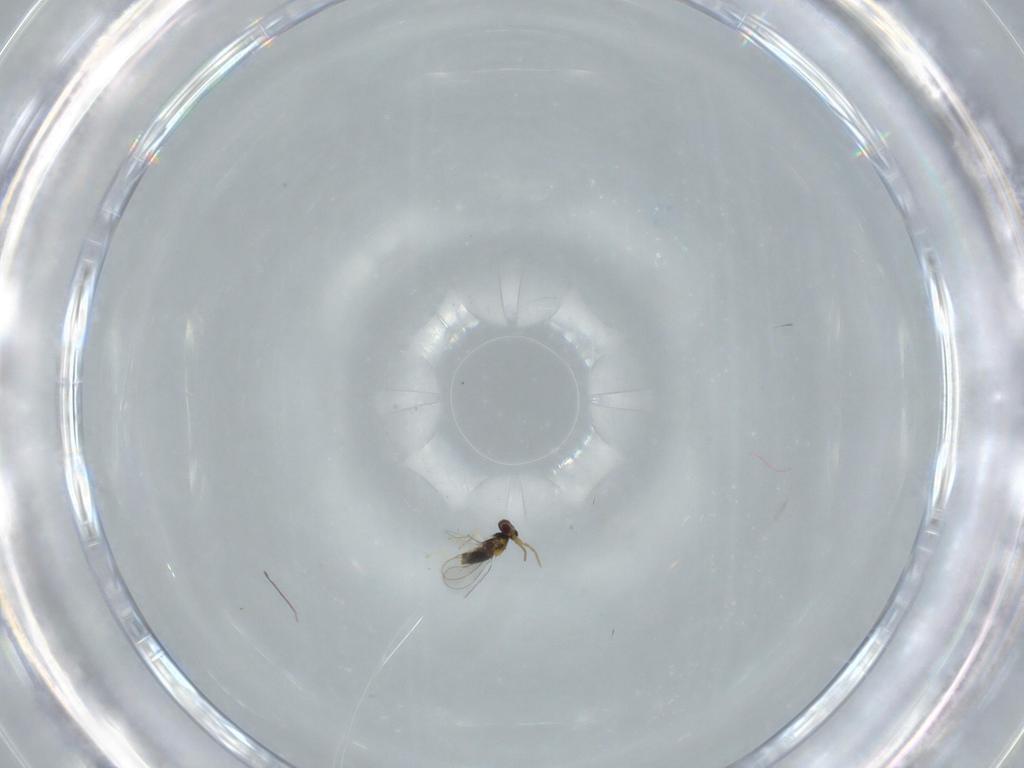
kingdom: Animalia
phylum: Arthropoda
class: Insecta
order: Hymenoptera
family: Aphelinidae
